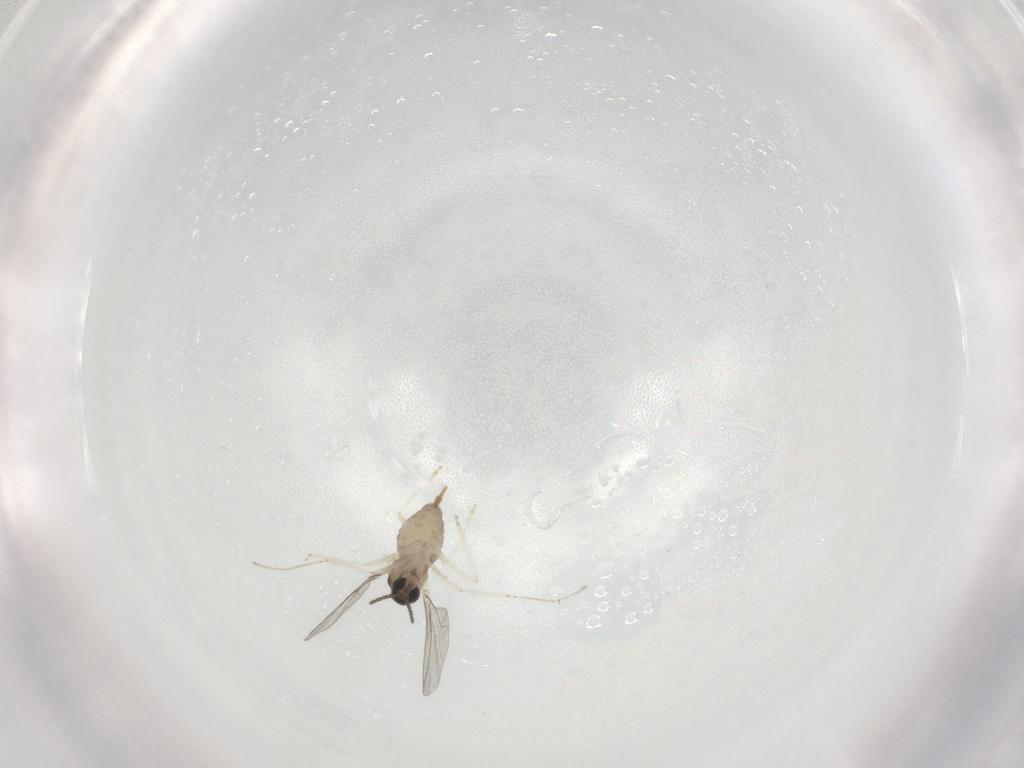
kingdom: Animalia
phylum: Arthropoda
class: Insecta
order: Diptera
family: Cecidomyiidae
